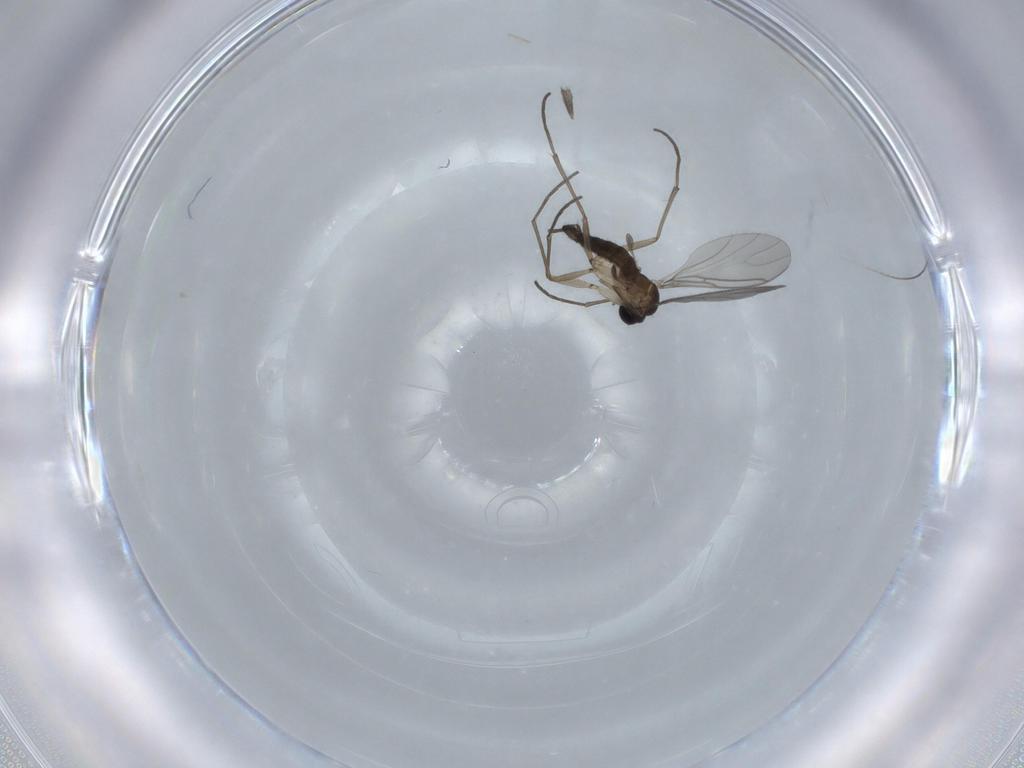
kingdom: Animalia
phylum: Arthropoda
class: Insecta
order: Diptera
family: Sciaridae
